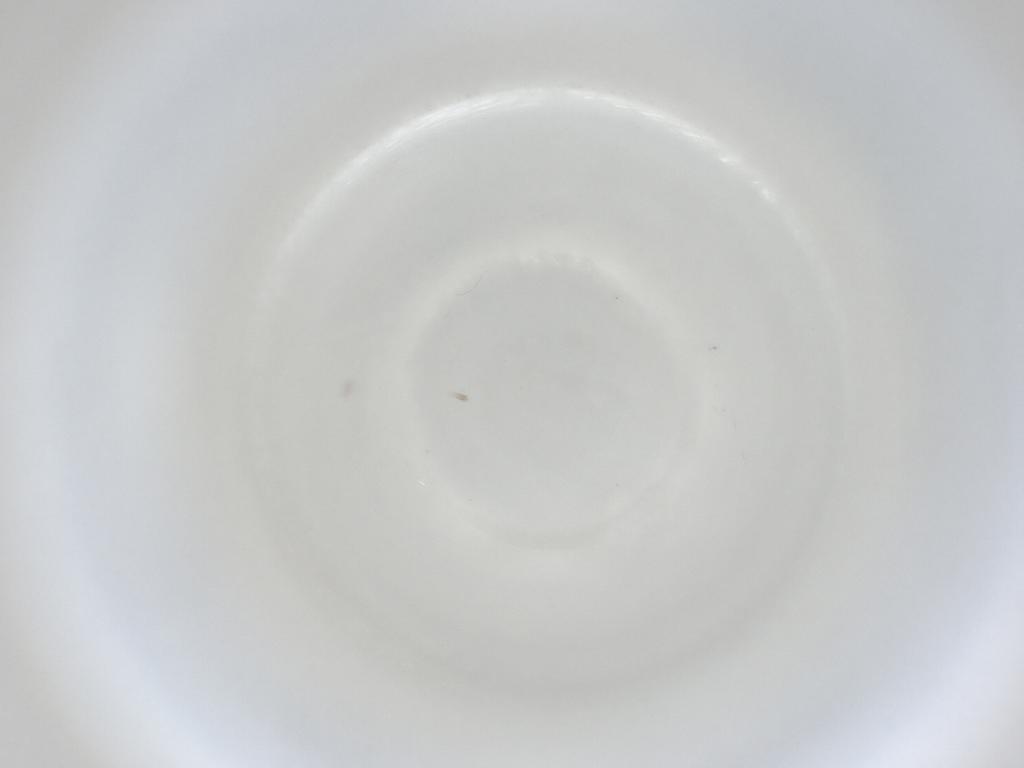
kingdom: Animalia
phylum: Arthropoda
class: Insecta
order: Diptera
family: Cecidomyiidae
